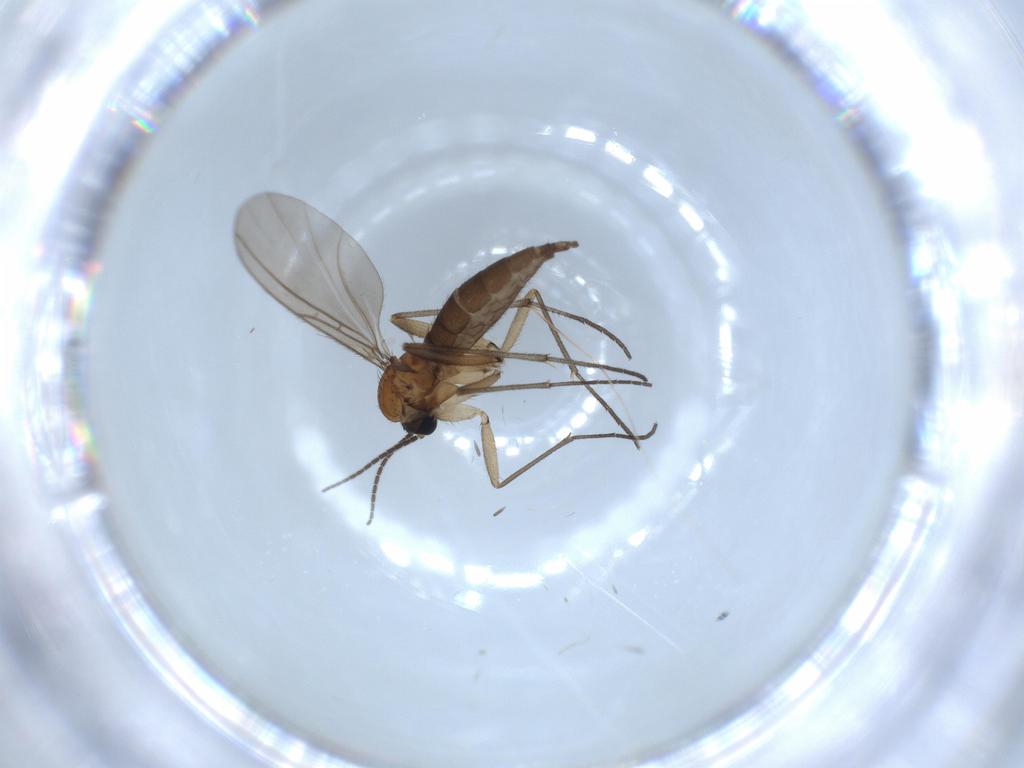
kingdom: Animalia
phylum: Arthropoda
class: Insecta
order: Diptera
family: Sciaridae
